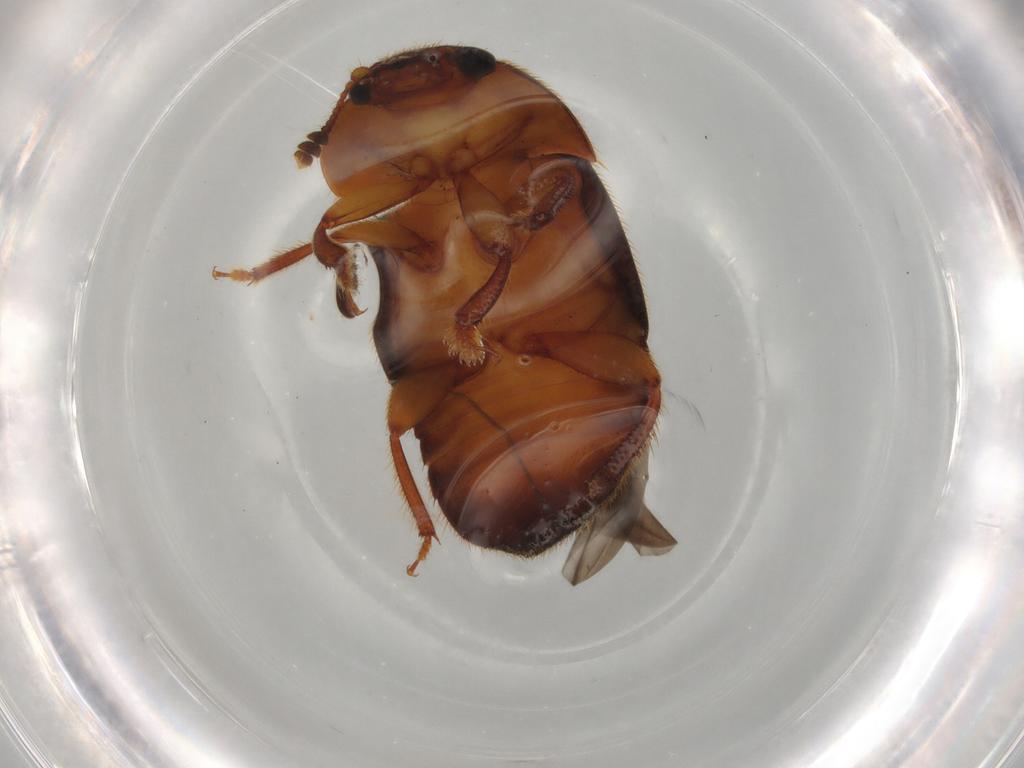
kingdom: Animalia
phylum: Arthropoda
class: Insecta
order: Coleoptera
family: Nitidulidae
